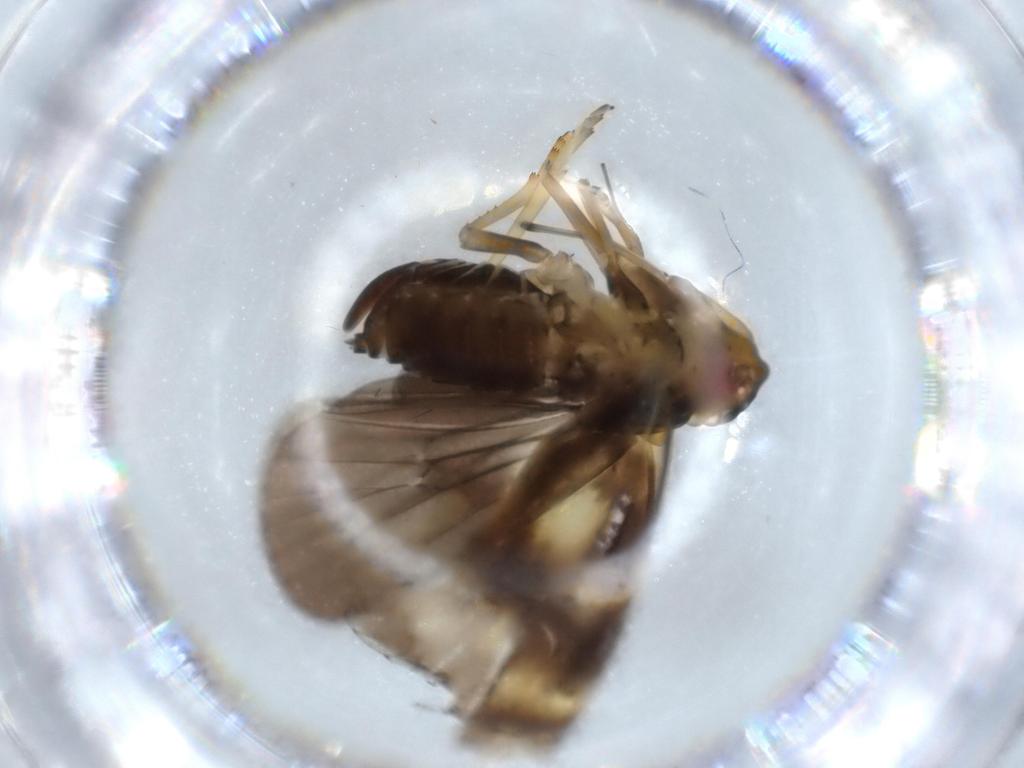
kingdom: Animalia
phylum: Arthropoda
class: Insecta
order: Hemiptera
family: Cixiidae
